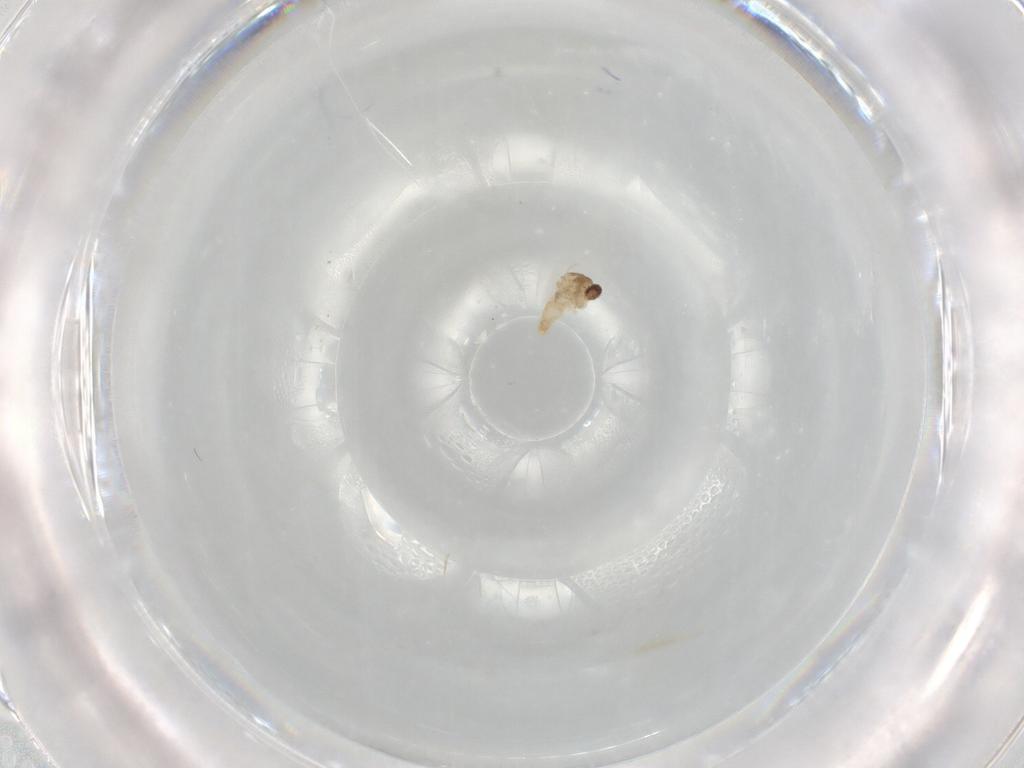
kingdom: Animalia
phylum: Arthropoda
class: Insecta
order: Diptera
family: Cecidomyiidae
